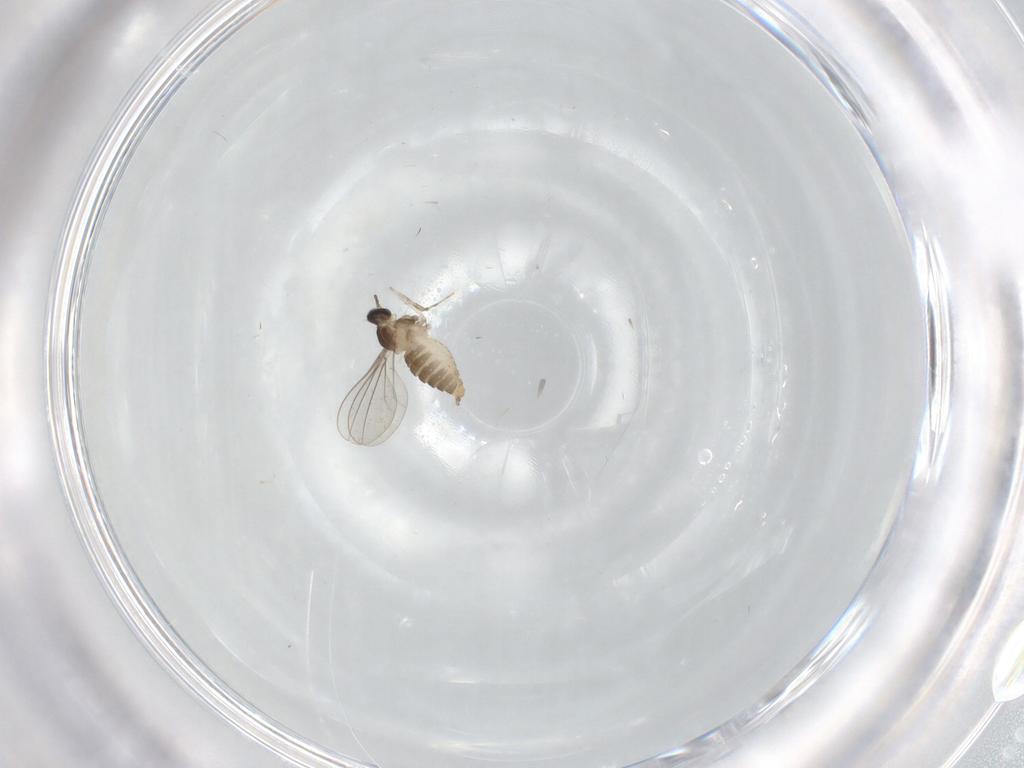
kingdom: Animalia
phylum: Arthropoda
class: Insecta
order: Diptera
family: Cecidomyiidae
